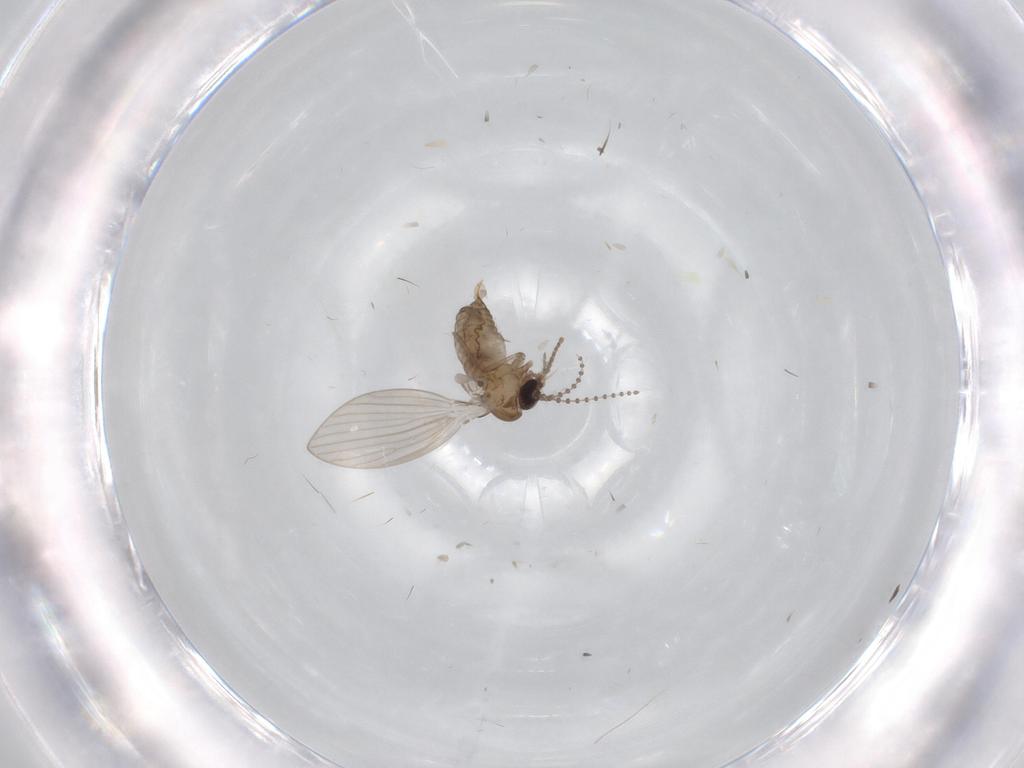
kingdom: Animalia
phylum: Arthropoda
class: Insecta
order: Diptera
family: Psychodidae
